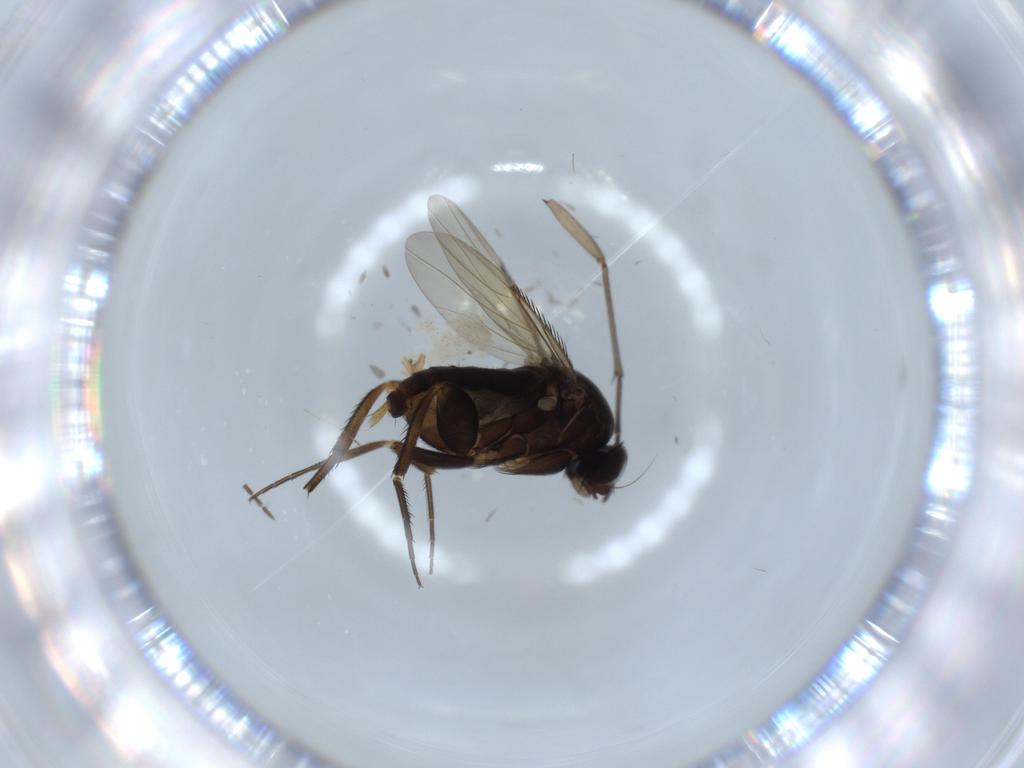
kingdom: Animalia
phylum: Arthropoda
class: Insecta
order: Diptera
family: Sciaridae
